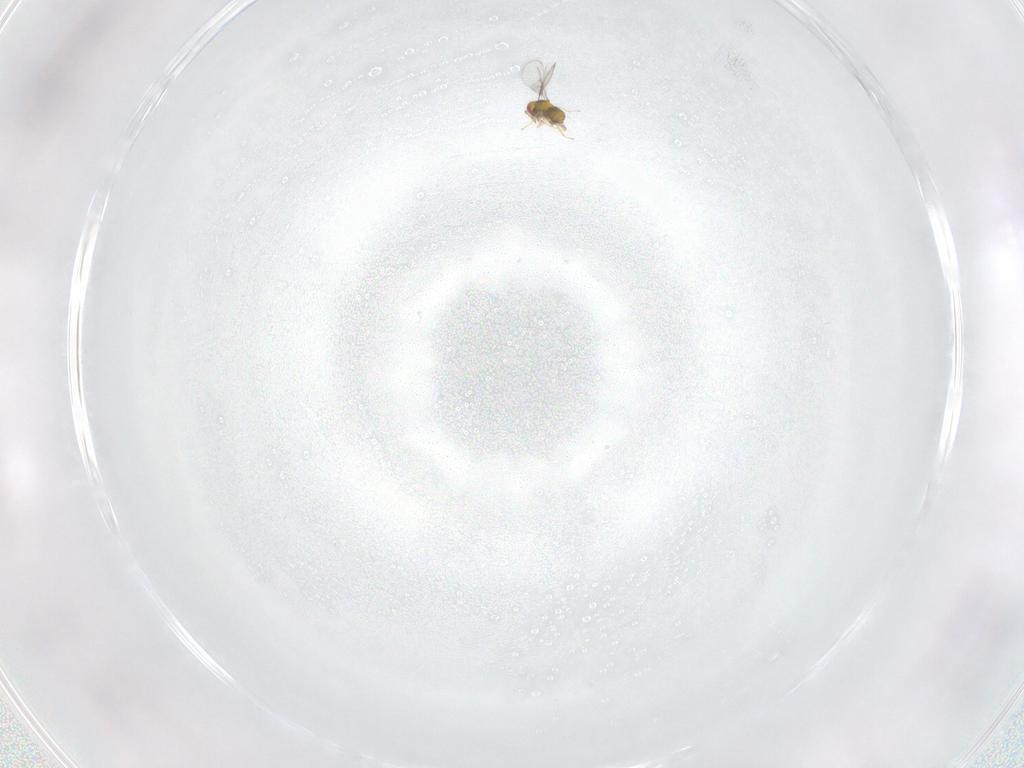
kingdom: Animalia
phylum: Arthropoda
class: Insecta
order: Hymenoptera
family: Trichogrammatidae
